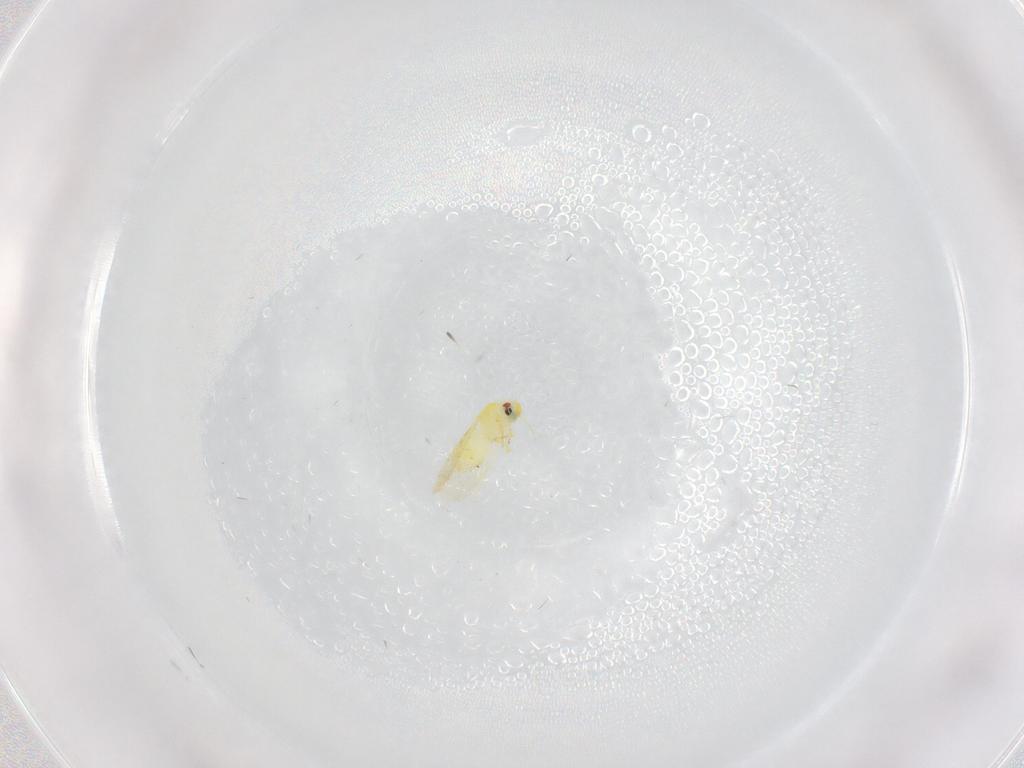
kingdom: Animalia
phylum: Arthropoda
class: Insecta
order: Hemiptera
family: Aleyrodidae
